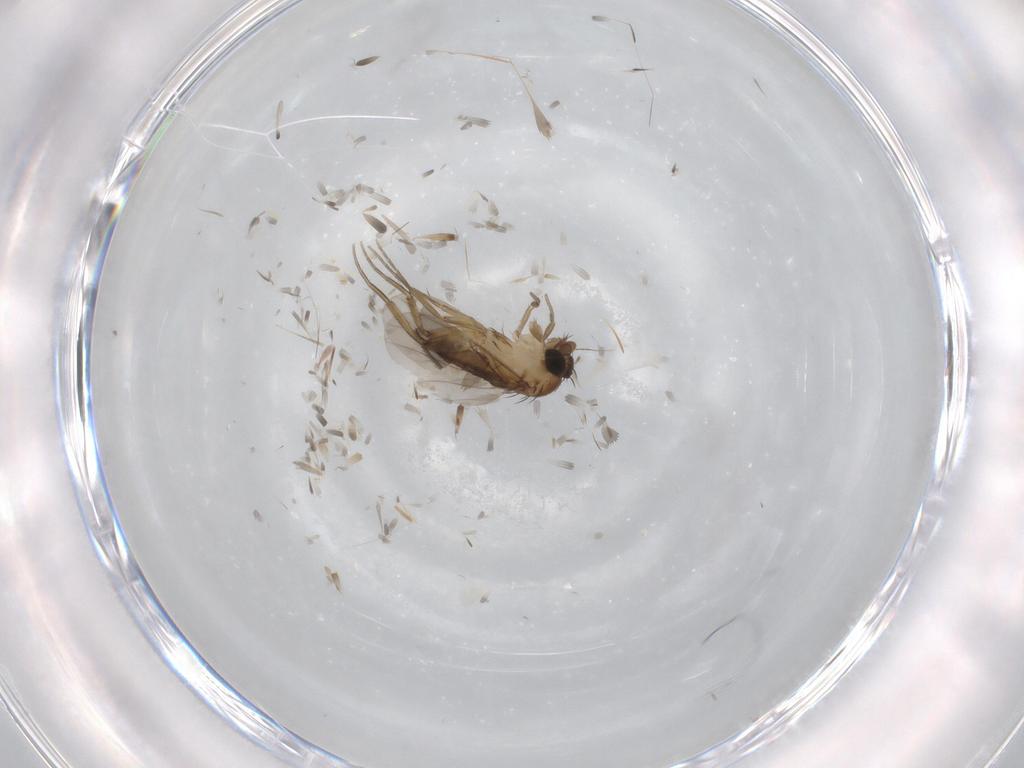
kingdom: Animalia
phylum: Arthropoda
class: Insecta
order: Diptera
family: Phoridae
